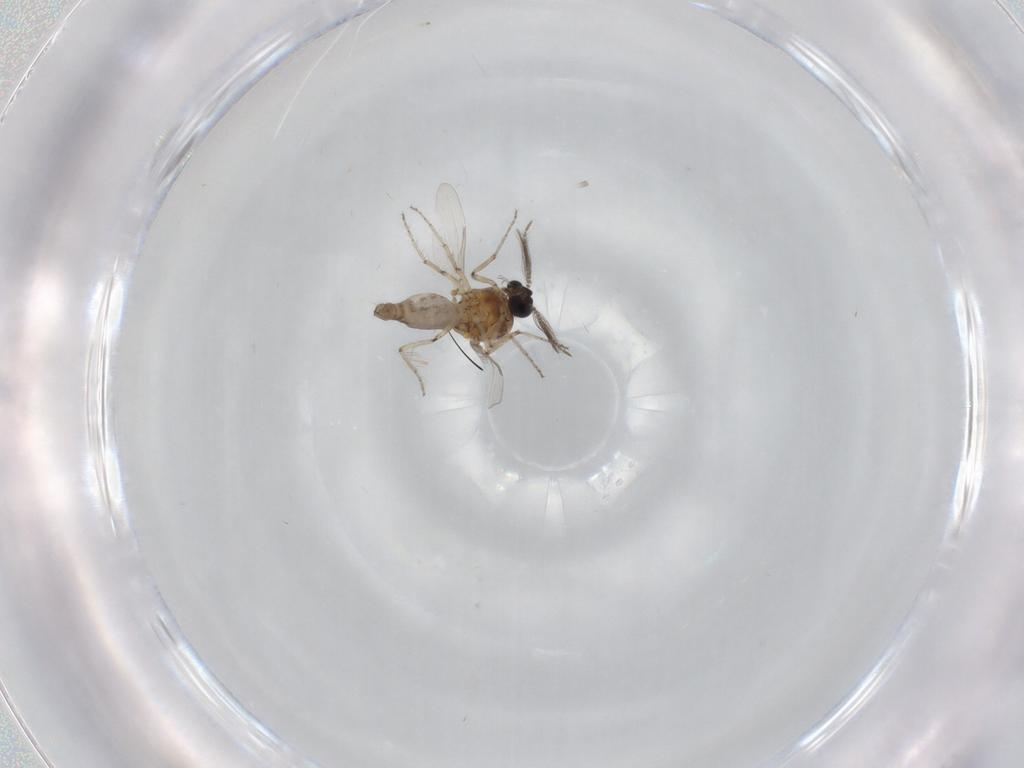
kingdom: Animalia
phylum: Arthropoda
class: Insecta
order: Diptera
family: Ceratopogonidae
